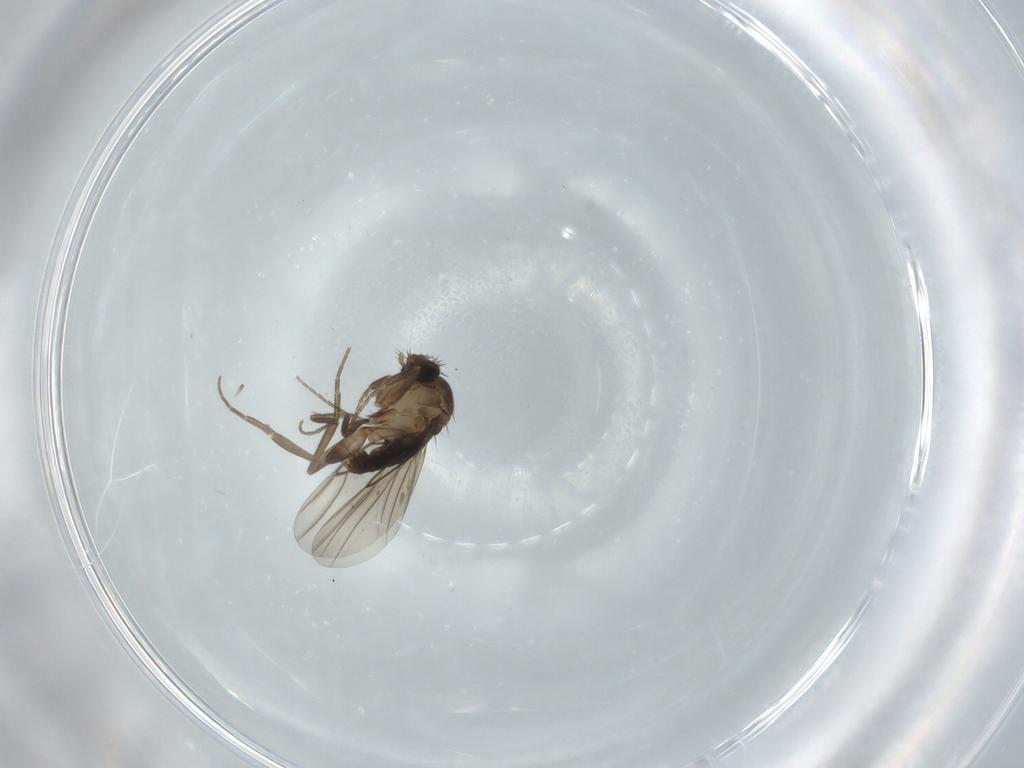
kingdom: Animalia
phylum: Arthropoda
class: Insecta
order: Diptera
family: Phoridae
